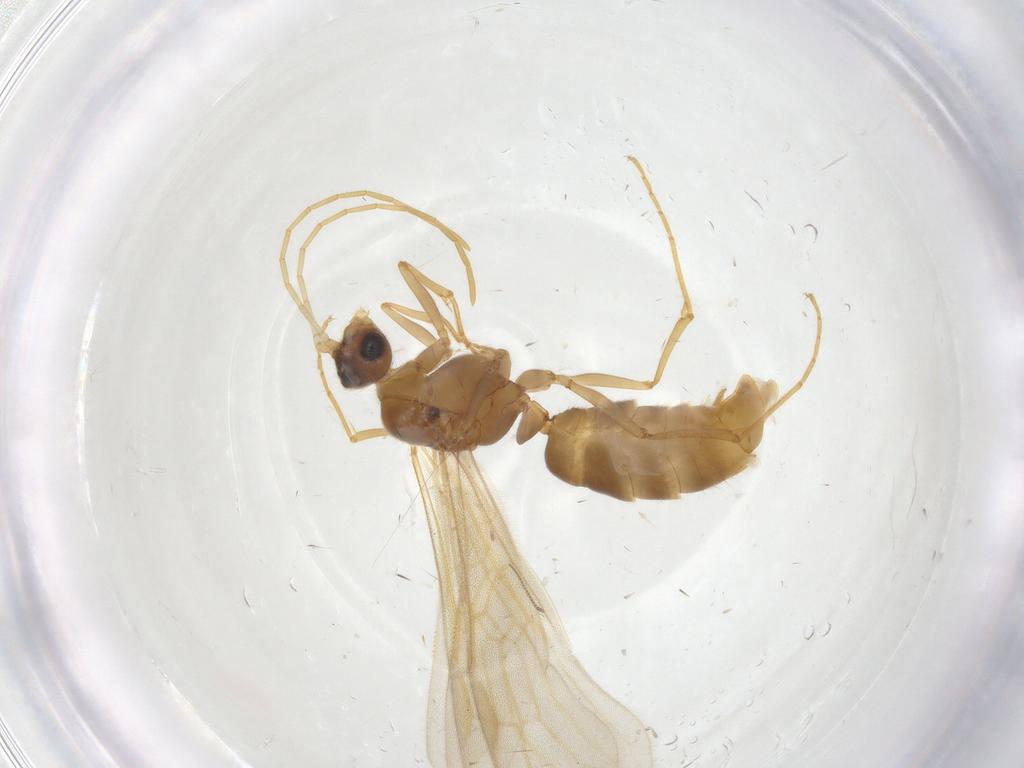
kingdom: Animalia
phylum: Arthropoda
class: Insecta
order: Hymenoptera
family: Formicidae
